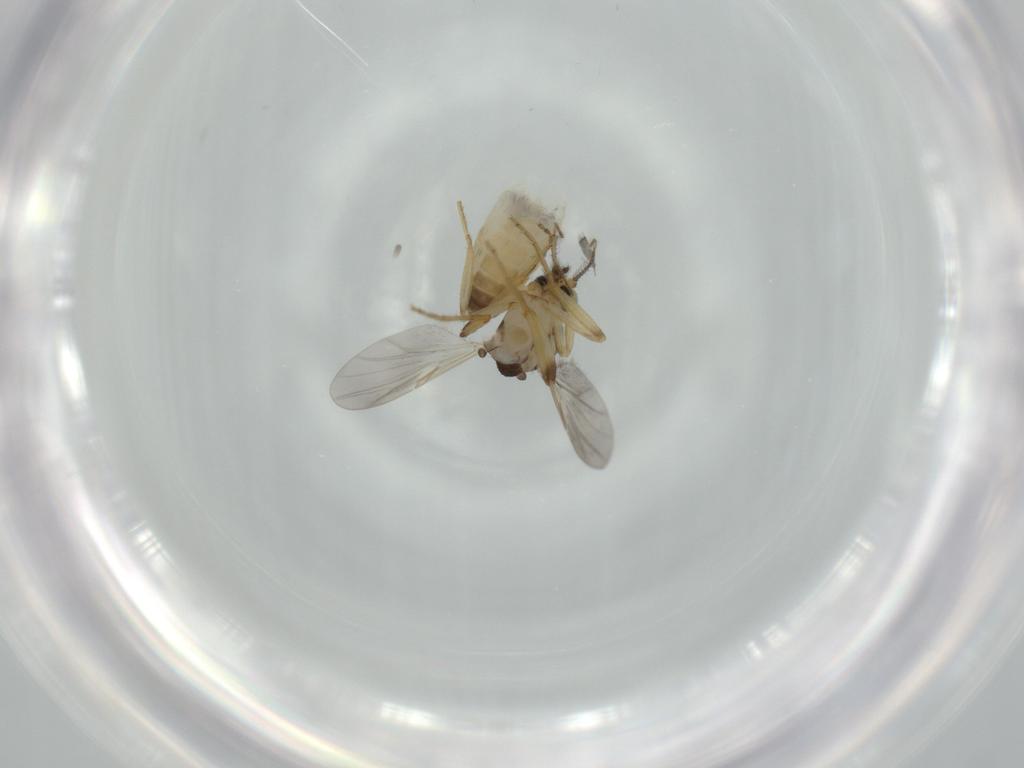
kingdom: Animalia
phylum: Arthropoda
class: Insecta
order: Diptera
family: Ceratopogonidae
